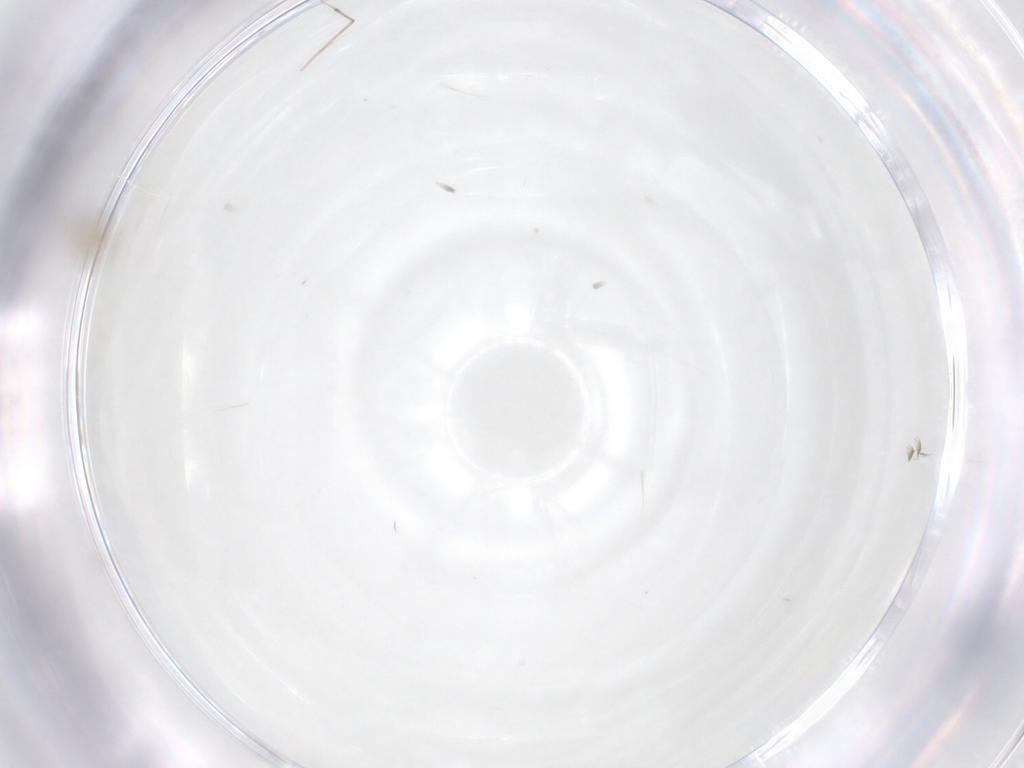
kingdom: Animalia
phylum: Arthropoda
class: Insecta
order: Hymenoptera
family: Mymaridae
